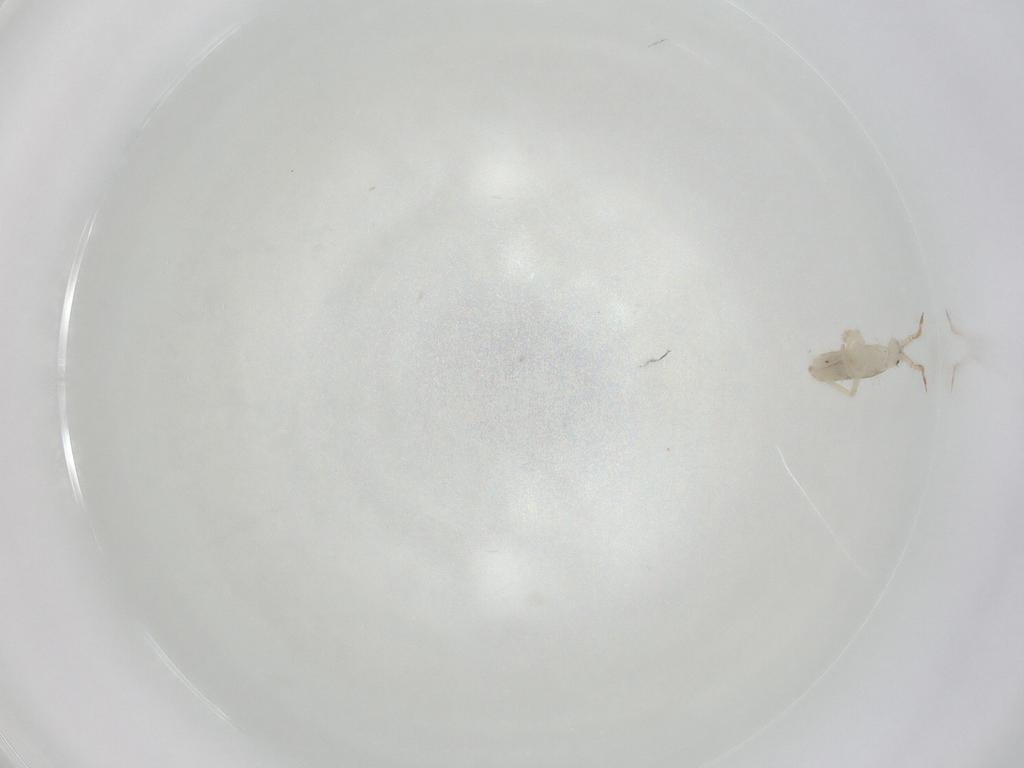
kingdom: Animalia
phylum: Arthropoda
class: Collembola
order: Entomobryomorpha
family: Entomobryidae
